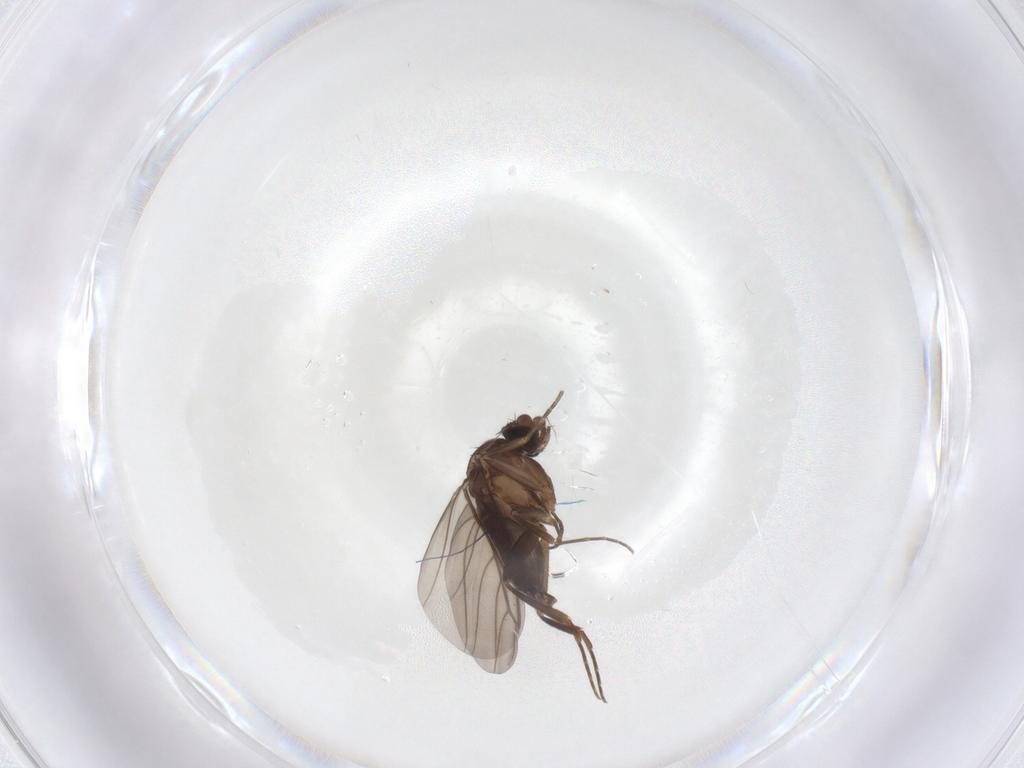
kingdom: Animalia
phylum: Arthropoda
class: Insecta
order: Diptera
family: Cecidomyiidae
